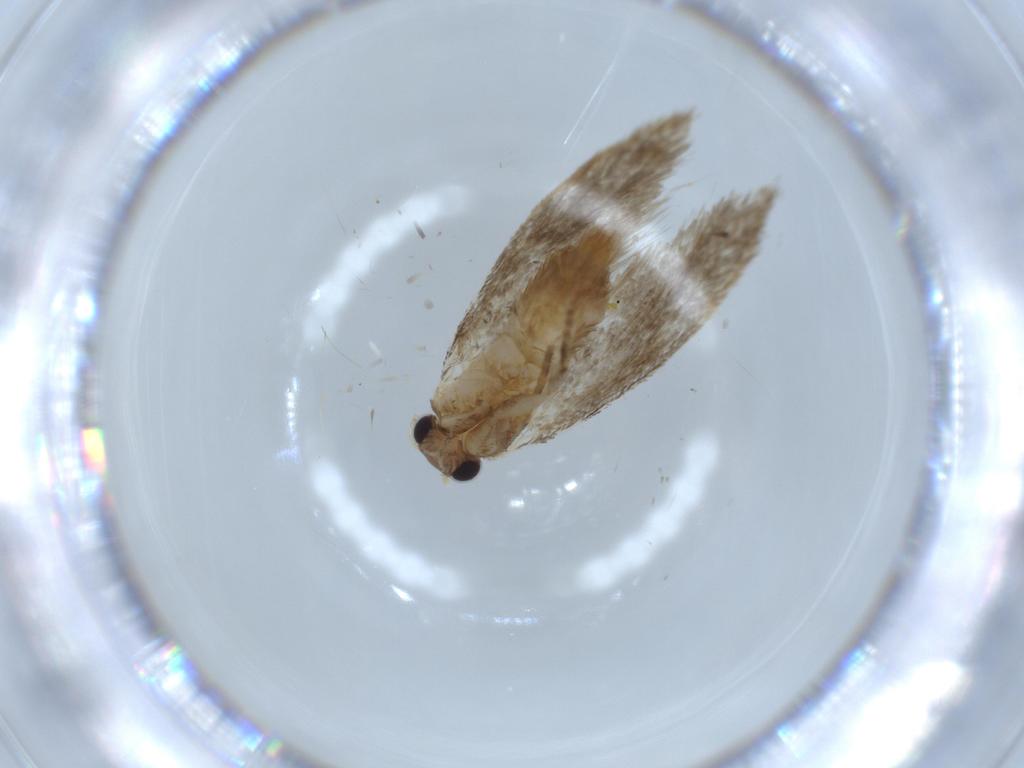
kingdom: Animalia
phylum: Arthropoda
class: Insecta
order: Lepidoptera
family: Tineidae
